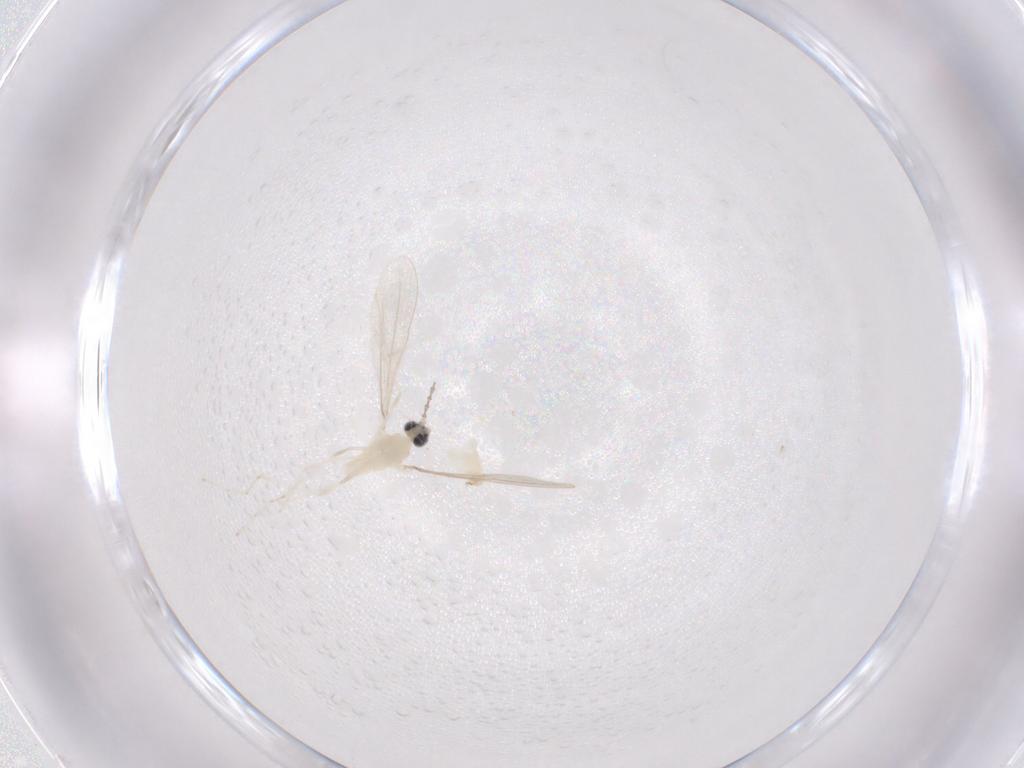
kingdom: Animalia
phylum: Arthropoda
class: Insecta
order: Diptera
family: Cecidomyiidae
